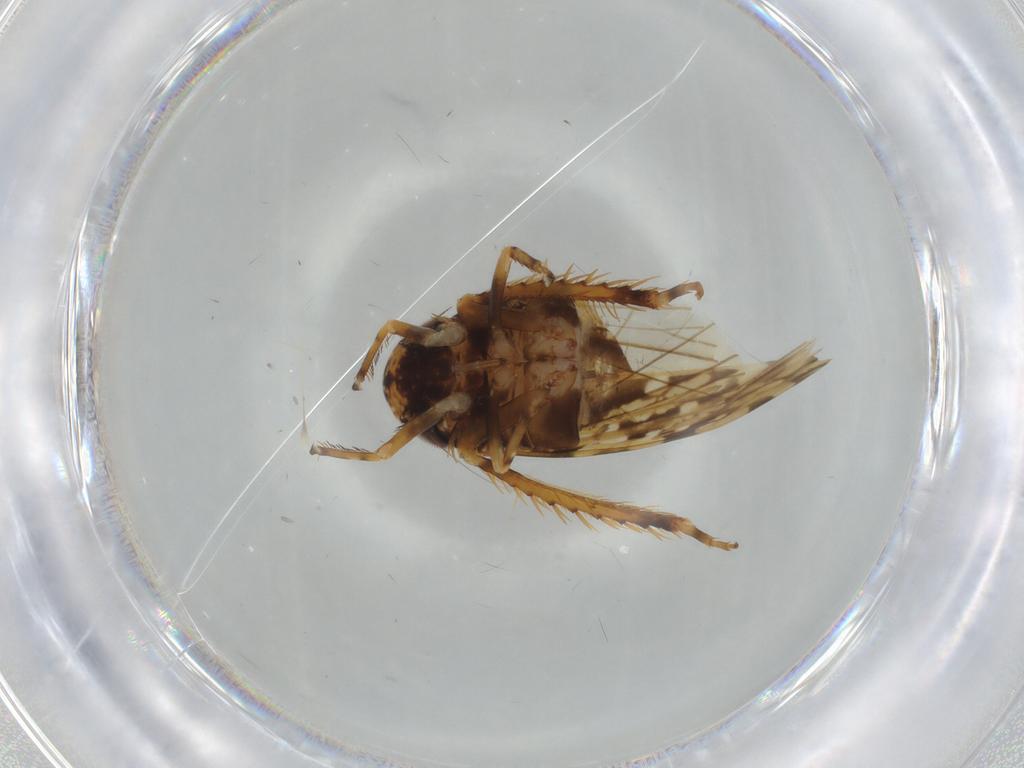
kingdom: Animalia
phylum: Arthropoda
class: Insecta
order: Hemiptera
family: Cicadellidae
